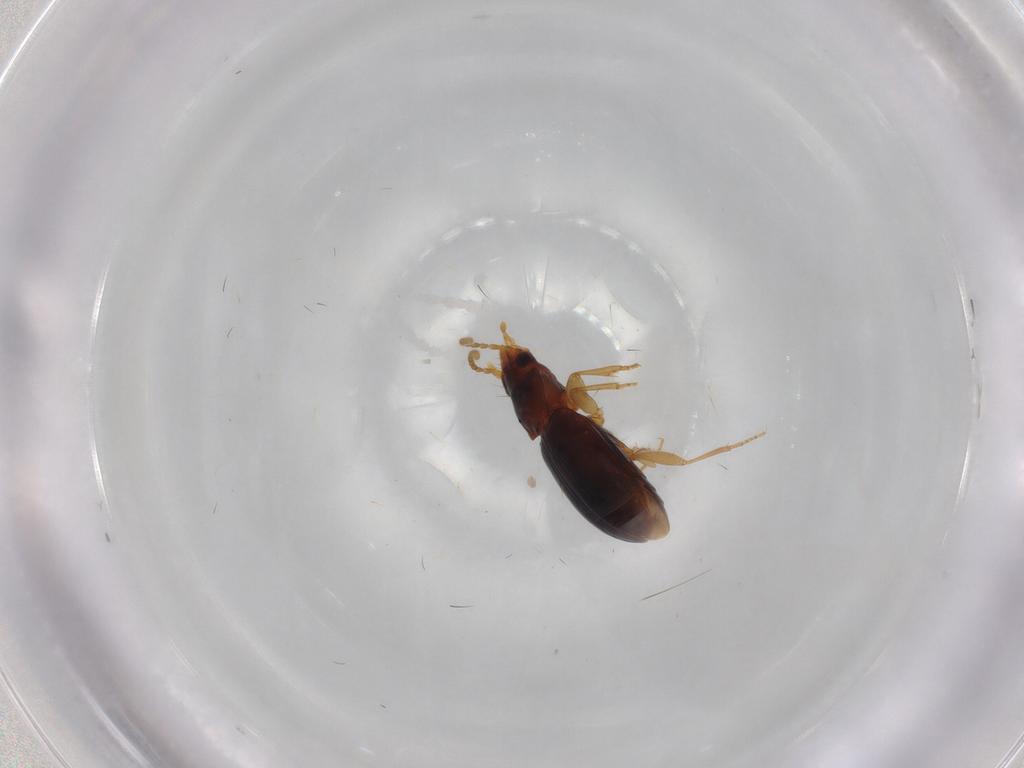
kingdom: Animalia
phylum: Arthropoda
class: Insecta
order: Coleoptera
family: Carabidae
